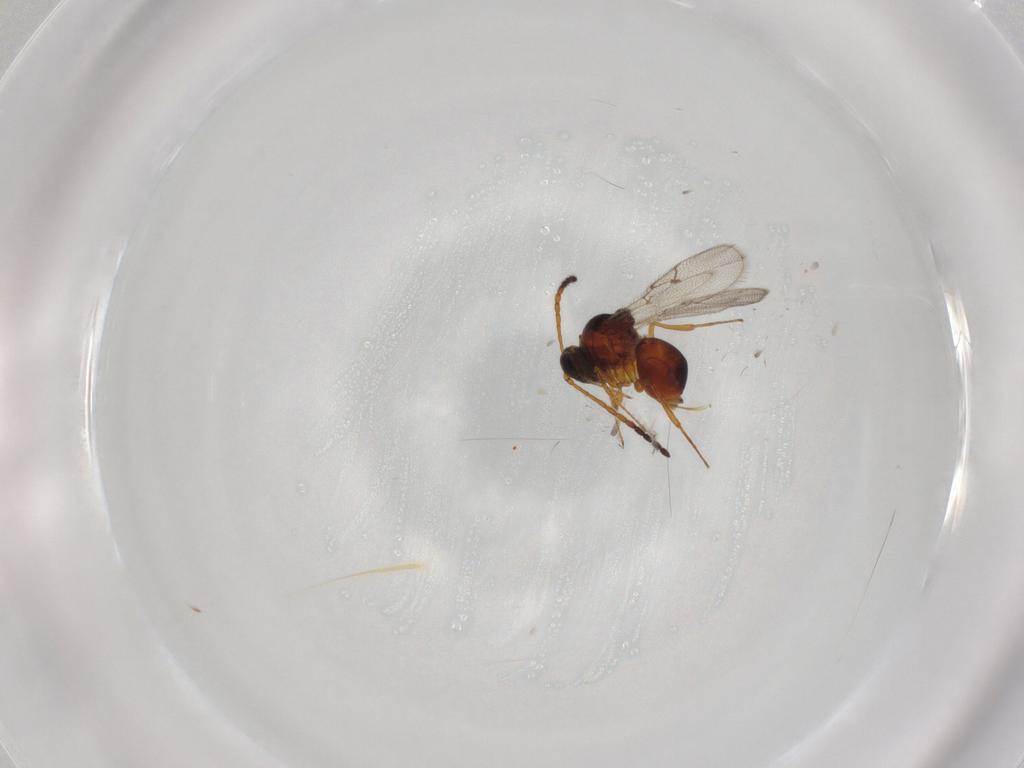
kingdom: Animalia
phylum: Arthropoda
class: Insecta
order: Hymenoptera
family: Figitidae
